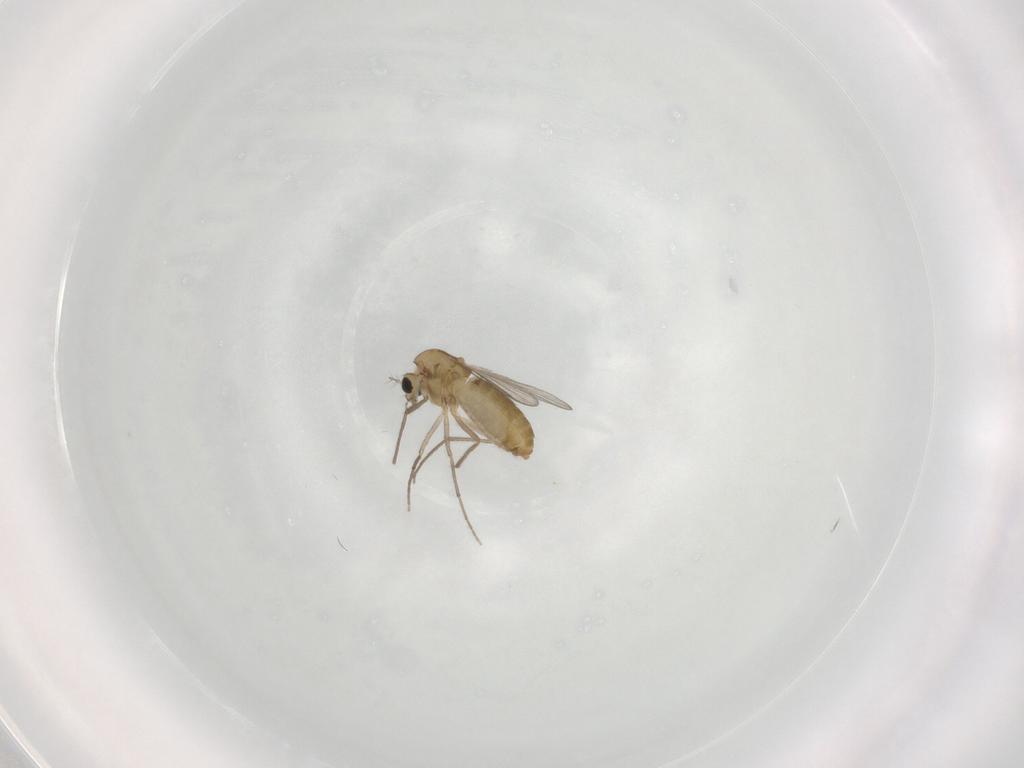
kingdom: Animalia
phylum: Arthropoda
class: Insecta
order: Diptera
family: Chironomidae
